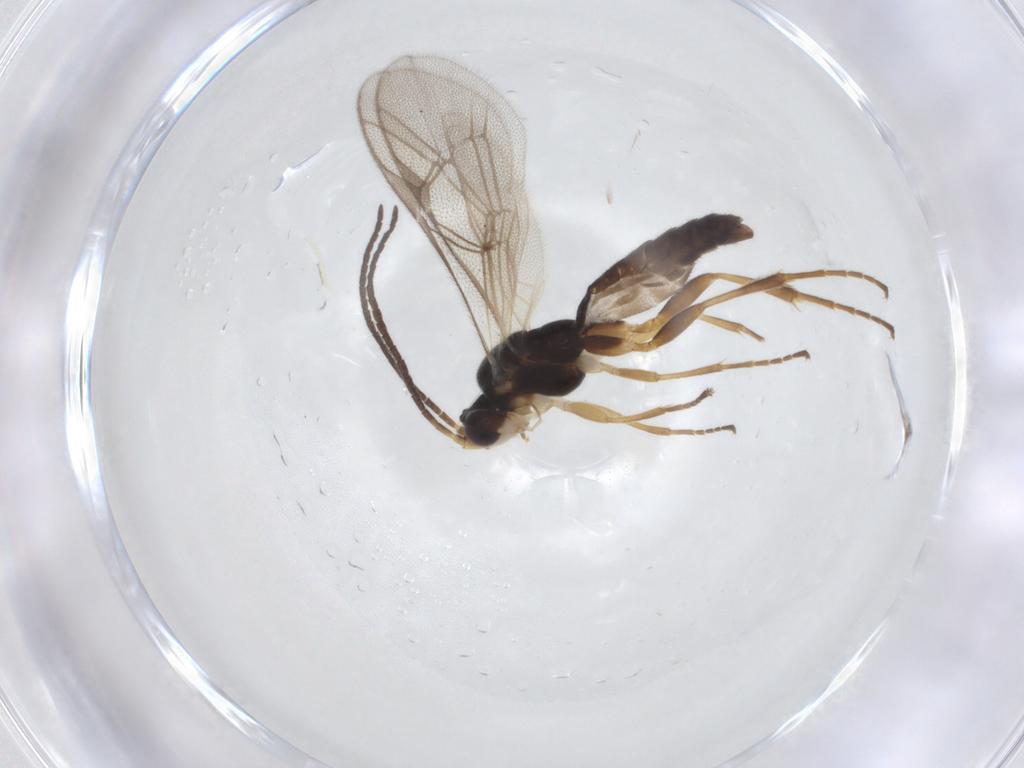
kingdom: Animalia
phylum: Arthropoda
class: Insecta
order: Hymenoptera
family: Ichneumonidae
